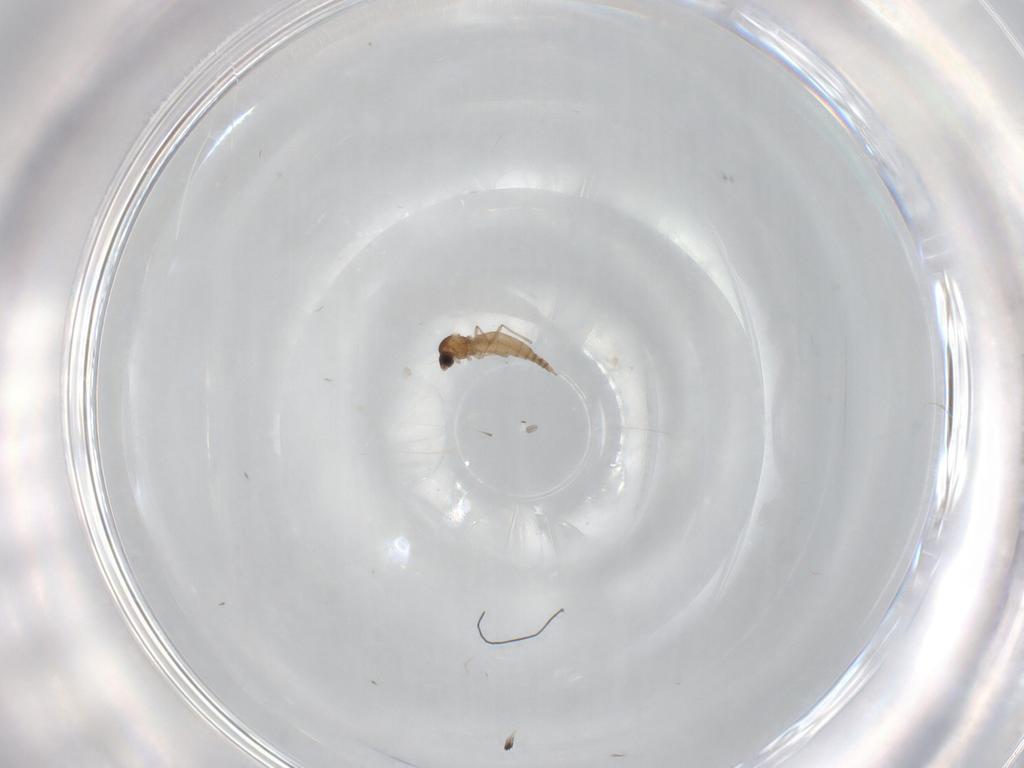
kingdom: Animalia
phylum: Arthropoda
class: Insecta
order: Diptera
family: Cecidomyiidae
